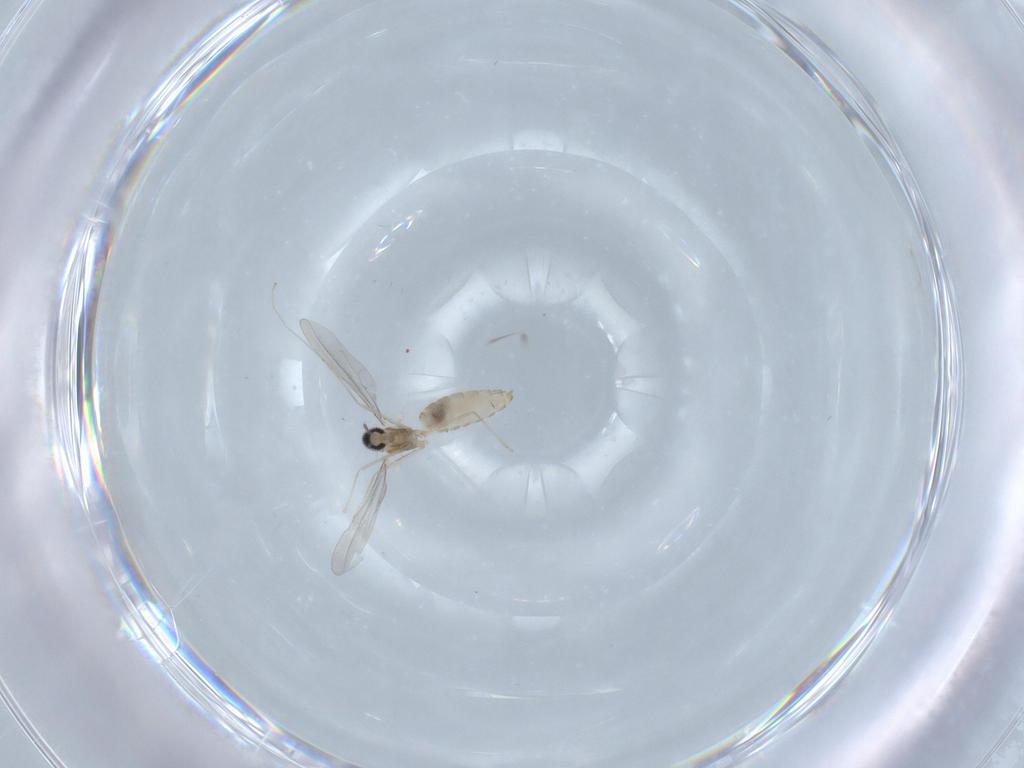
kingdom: Animalia
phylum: Arthropoda
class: Insecta
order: Diptera
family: Cecidomyiidae
